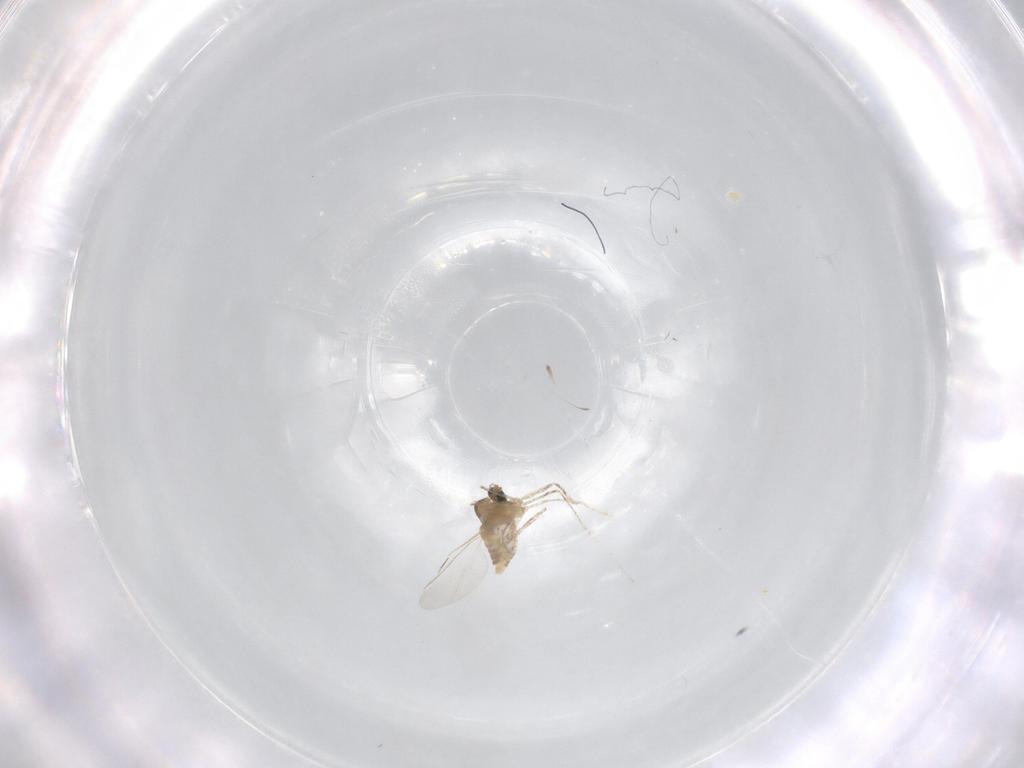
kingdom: Animalia
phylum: Arthropoda
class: Insecta
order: Diptera
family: Cecidomyiidae
